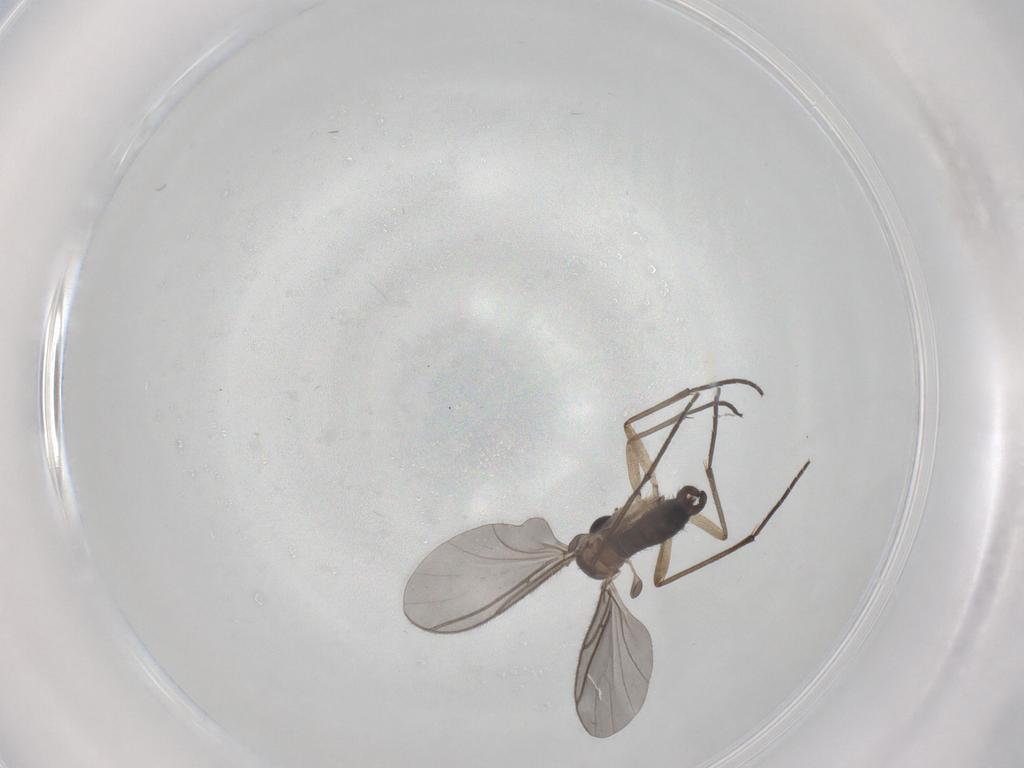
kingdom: Animalia
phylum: Arthropoda
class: Insecta
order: Diptera
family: Sciaridae
